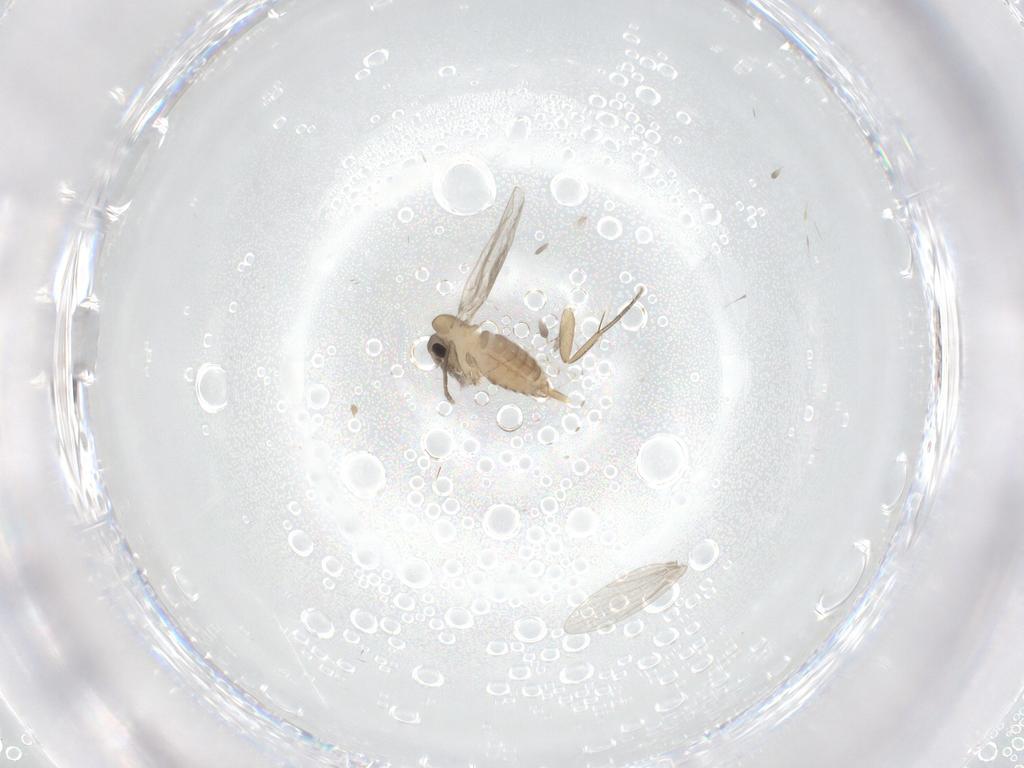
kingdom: Animalia
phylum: Arthropoda
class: Insecta
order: Diptera
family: Psychodidae
